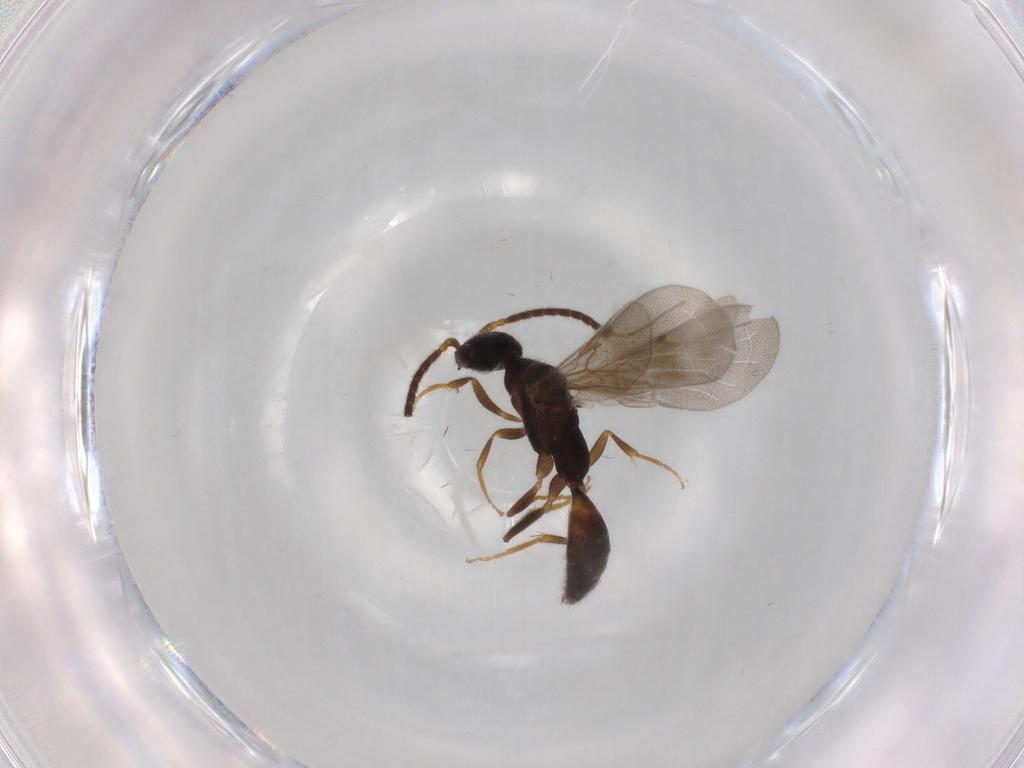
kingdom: Animalia
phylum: Arthropoda
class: Insecta
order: Hymenoptera
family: Bethylidae
